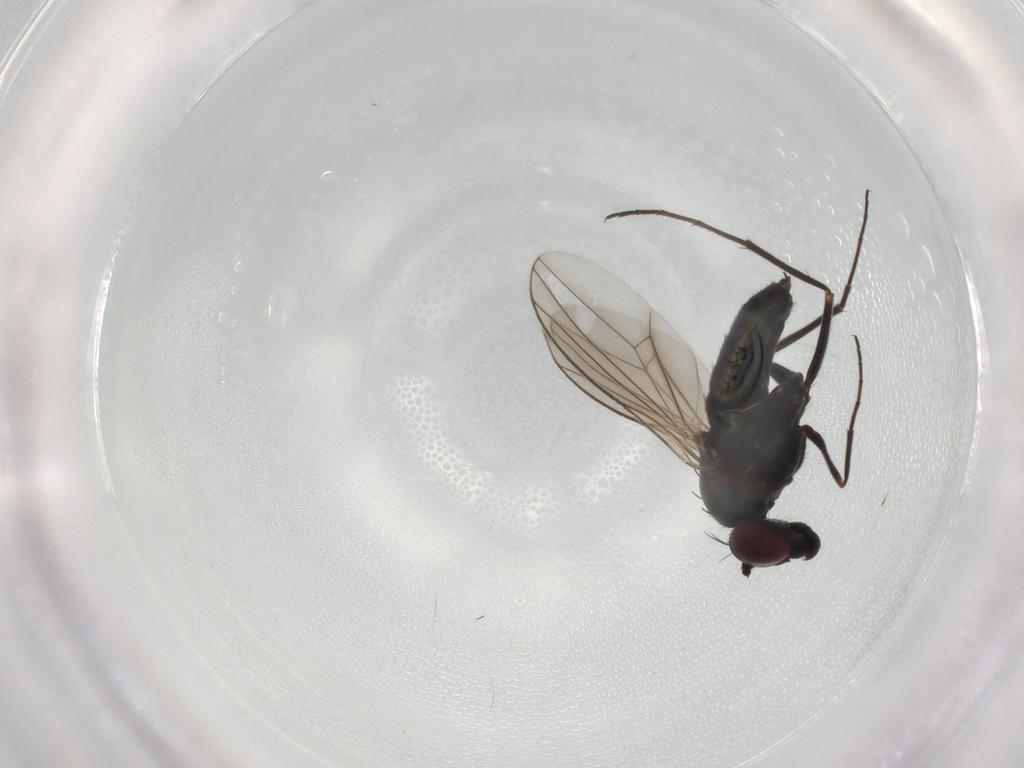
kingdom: Animalia
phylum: Arthropoda
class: Insecta
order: Diptera
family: Dolichopodidae
